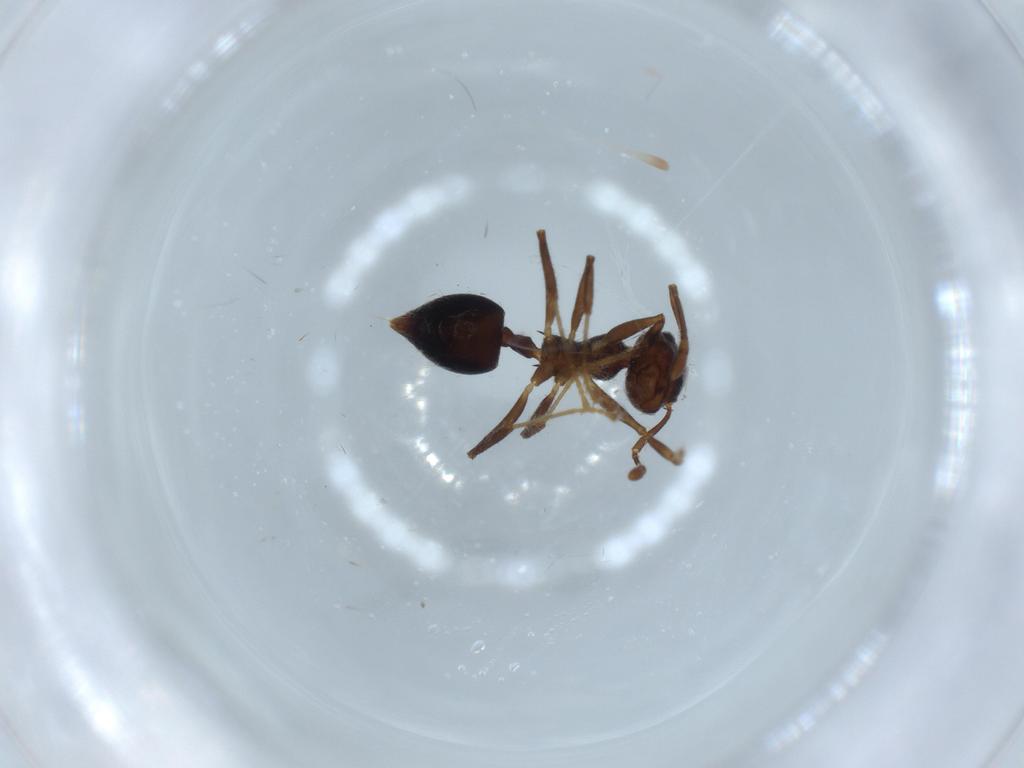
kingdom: Animalia
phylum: Arthropoda
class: Insecta
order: Hymenoptera
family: Formicidae
